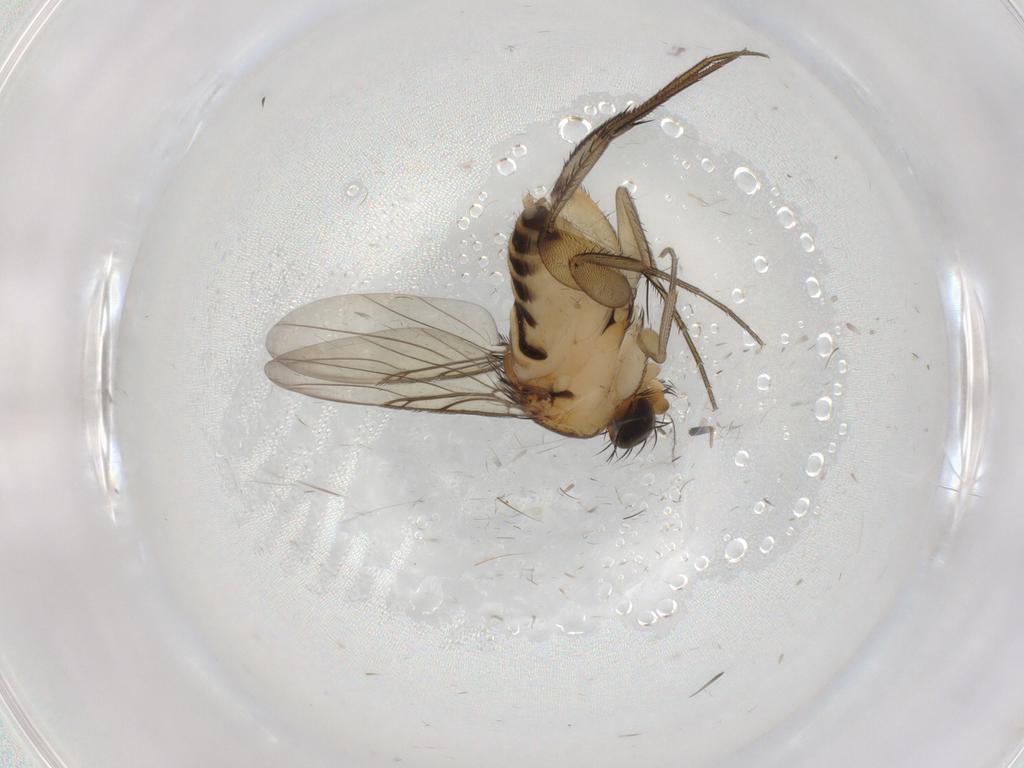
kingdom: Animalia
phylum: Arthropoda
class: Insecta
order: Diptera
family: Phoridae
